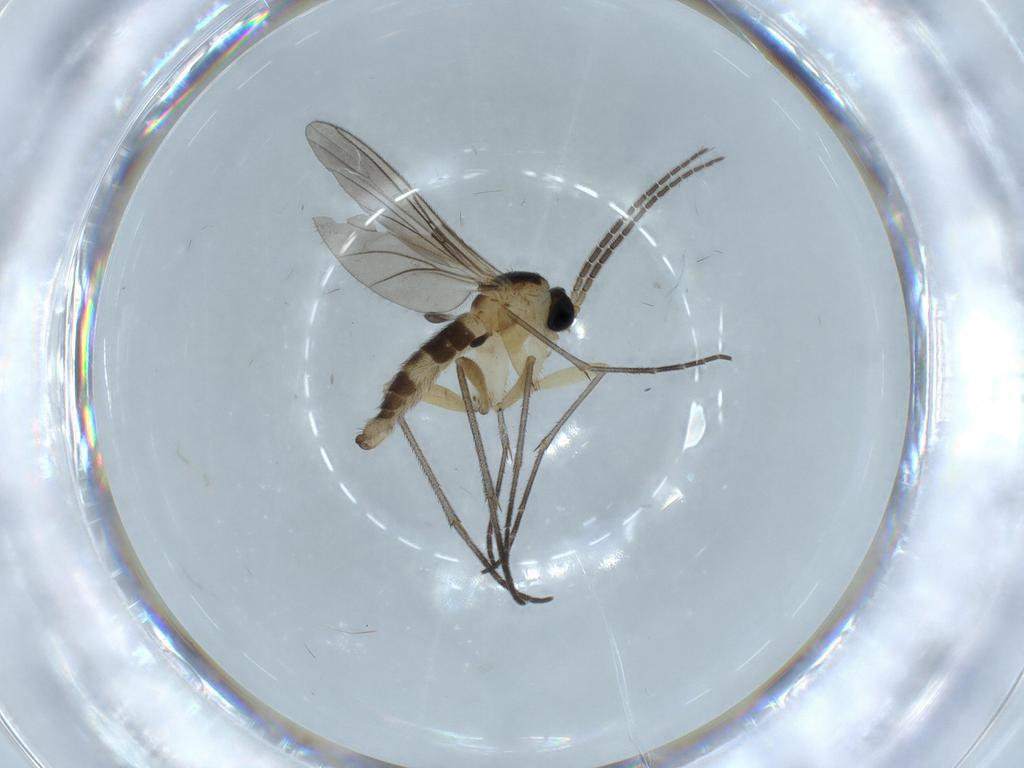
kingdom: Animalia
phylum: Arthropoda
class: Insecta
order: Diptera
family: Sciaridae
